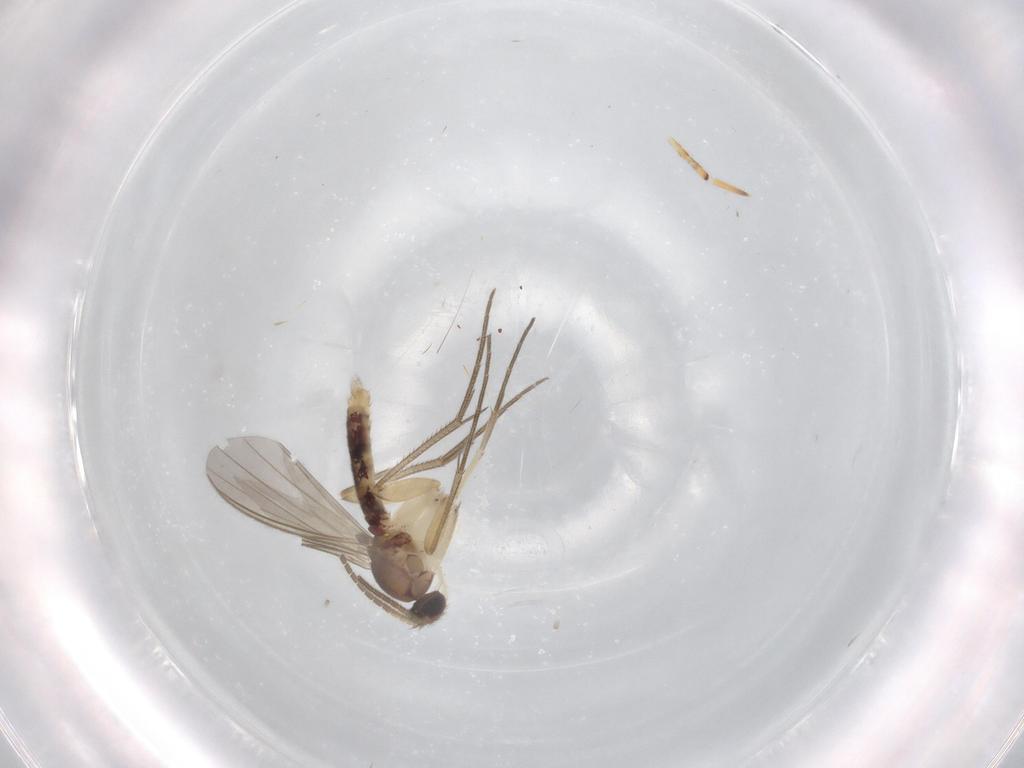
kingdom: Animalia
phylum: Arthropoda
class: Insecta
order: Diptera
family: Mycetophilidae
